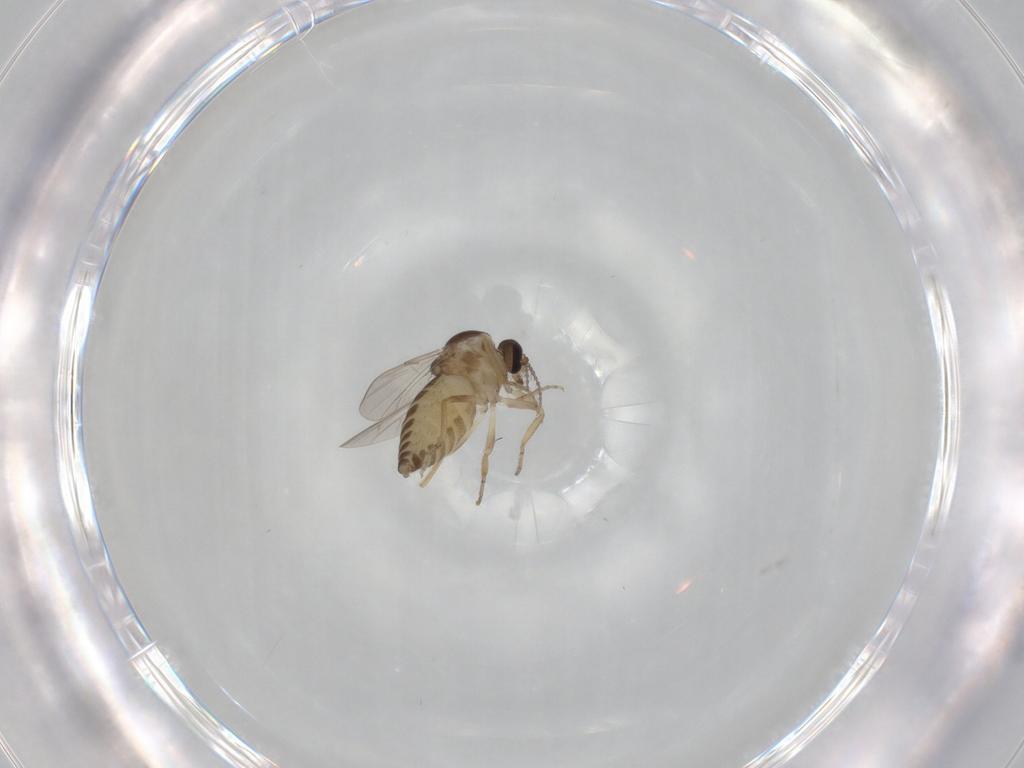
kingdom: Animalia
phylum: Arthropoda
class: Insecta
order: Diptera
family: Ceratopogonidae
